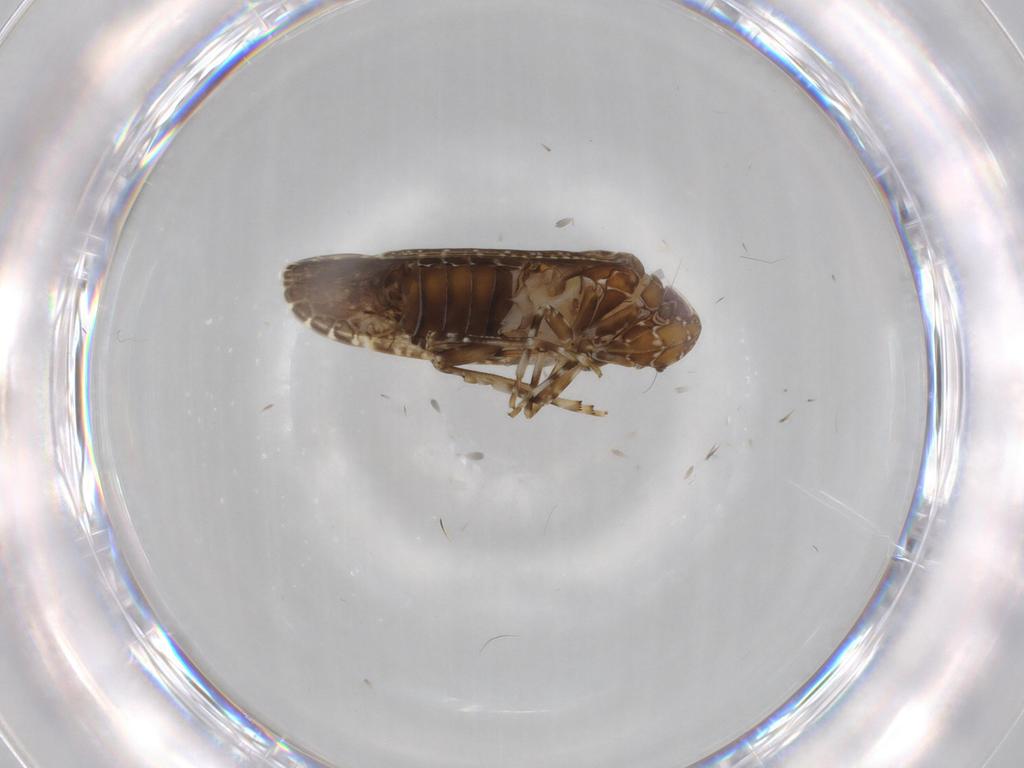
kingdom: Animalia
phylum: Arthropoda
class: Insecta
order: Hemiptera
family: Achilidae
